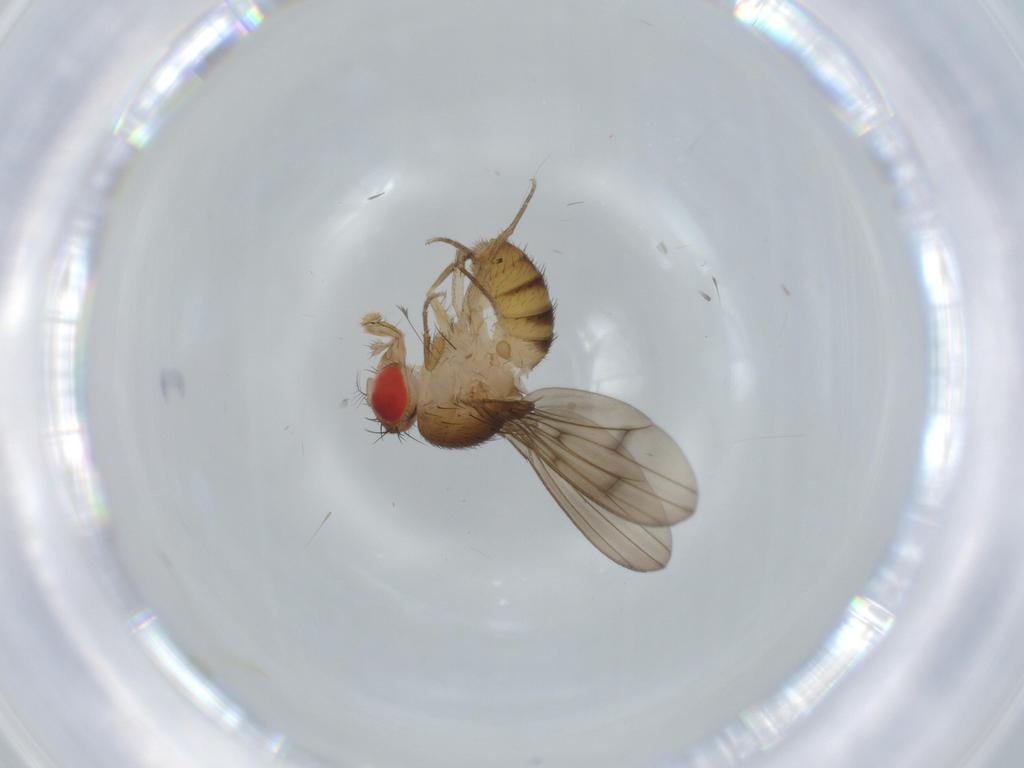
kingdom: Animalia
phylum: Arthropoda
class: Insecta
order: Diptera
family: Drosophilidae
